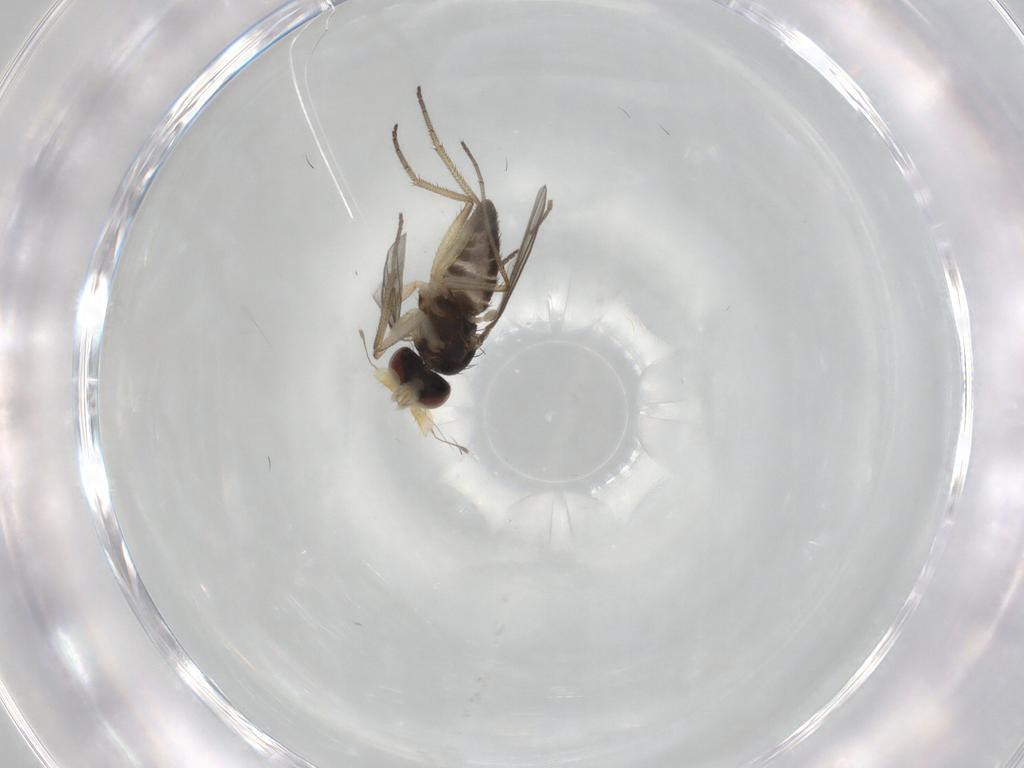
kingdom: Animalia
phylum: Arthropoda
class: Insecta
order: Diptera
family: Dolichopodidae
